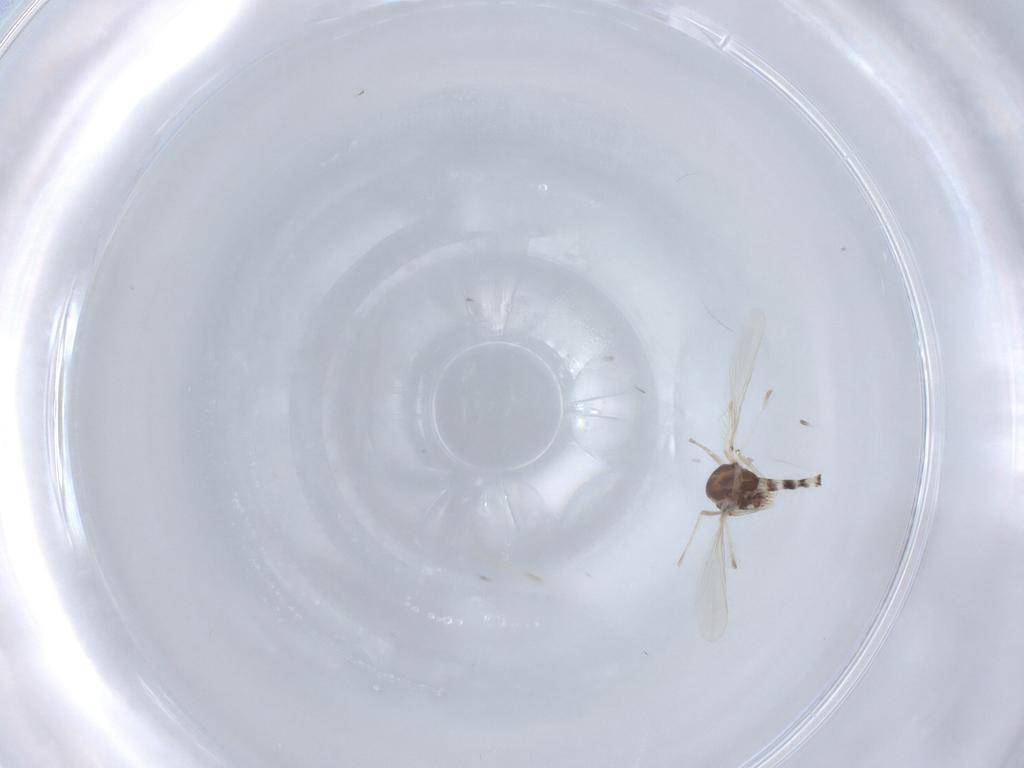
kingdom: Animalia
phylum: Arthropoda
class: Insecta
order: Diptera
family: Chironomidae
